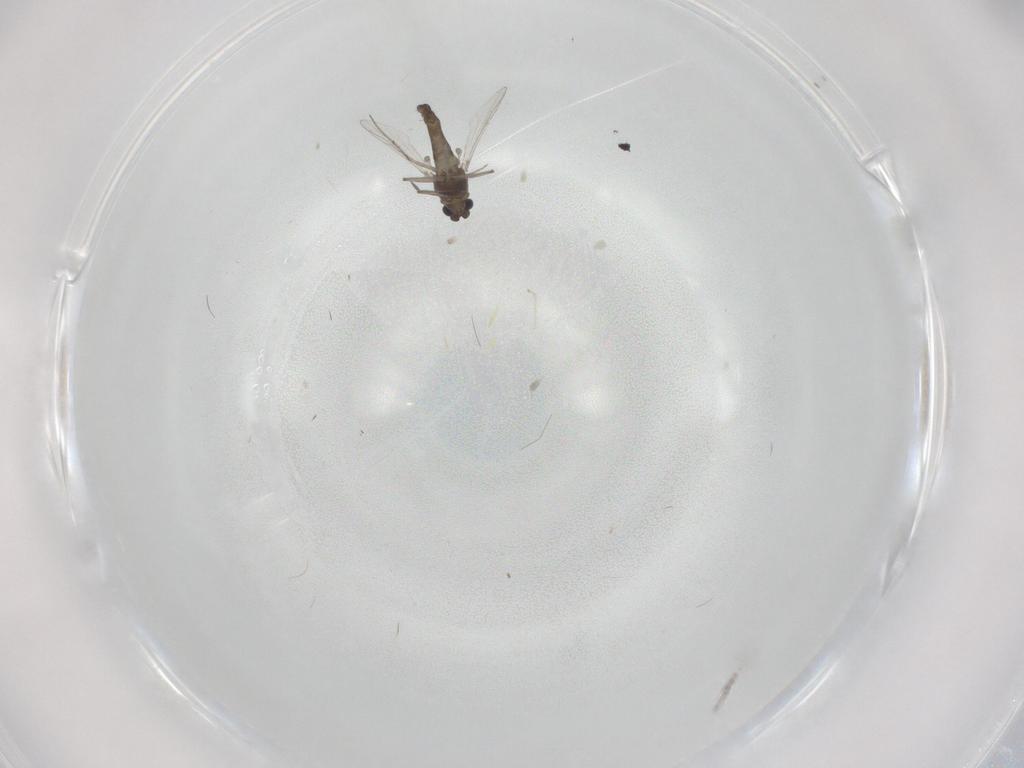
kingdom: Animalia
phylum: Arthropoda
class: Insecta
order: Diptera
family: Chironomidae
